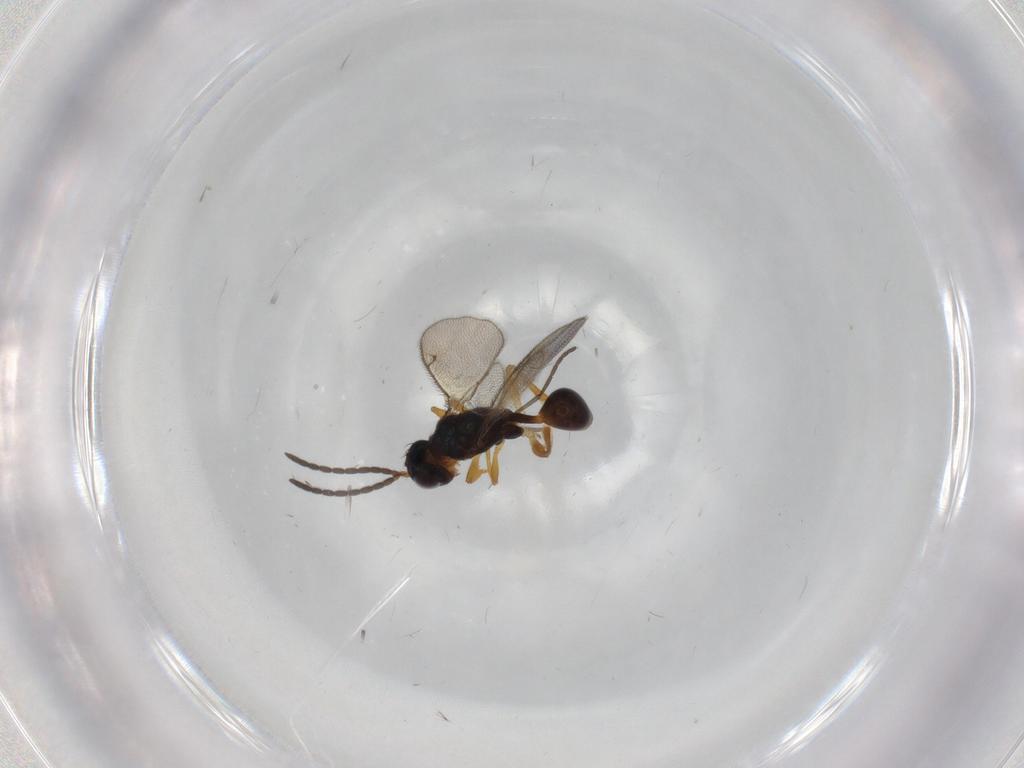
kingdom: Animalia
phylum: Arthropoda
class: Insecta
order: Hymenoptera
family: Diparidae
